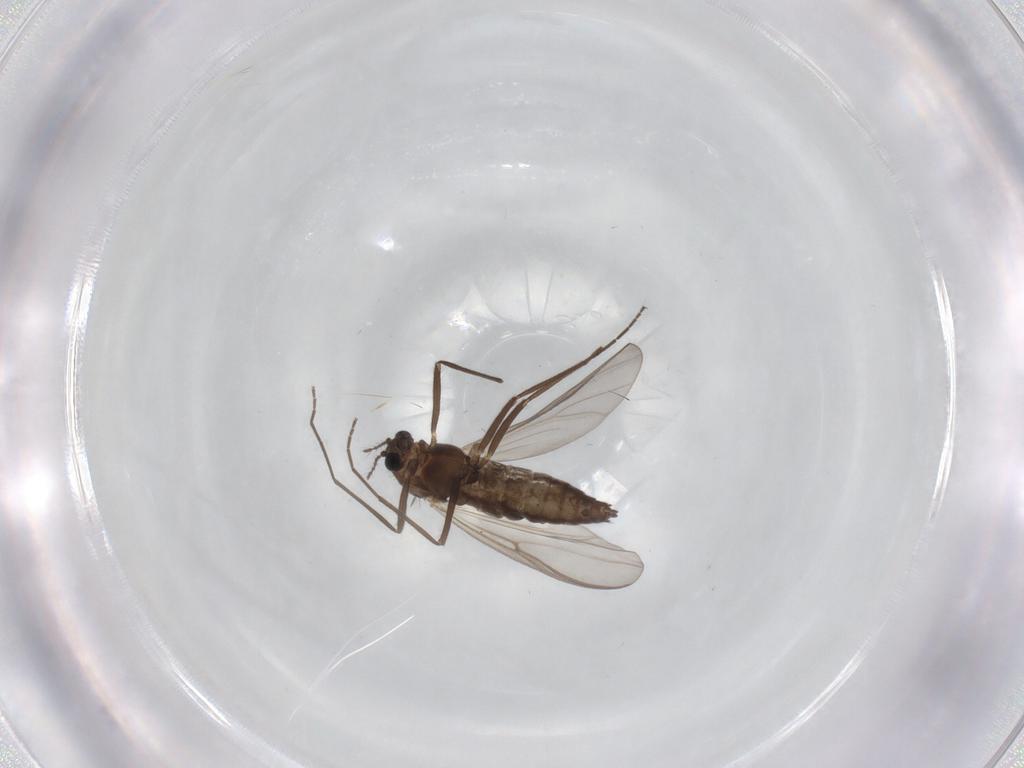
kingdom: Animalia
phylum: Arthropoda
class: Insecta
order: Diptera
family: Chironomidae
